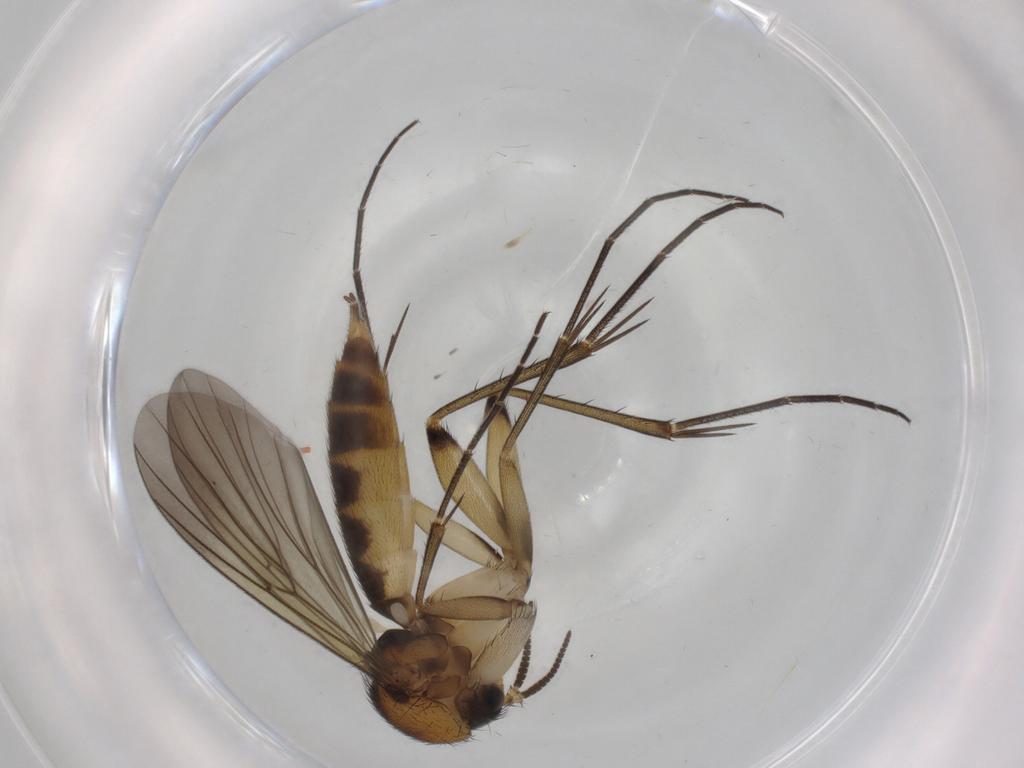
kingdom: Animalia
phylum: Arthropoda
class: Insecta
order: Diptera
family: Mycetophilidae
